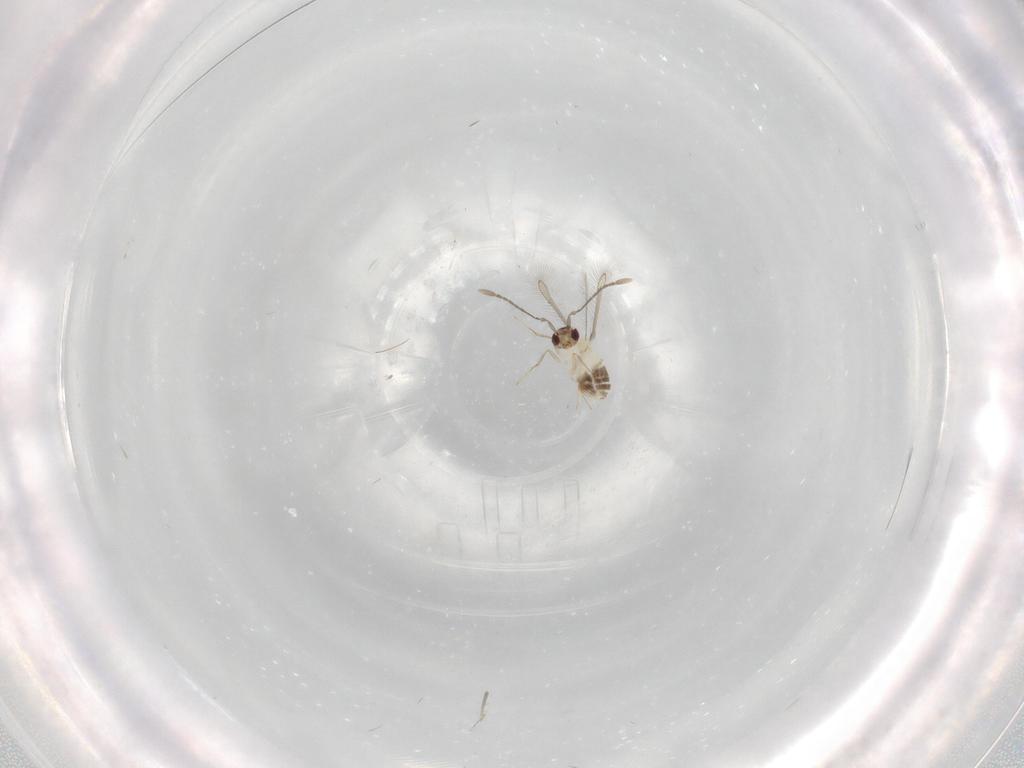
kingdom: Animalia
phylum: Arthropoda
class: Insecta
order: Hymenoptera
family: Mymaridae
